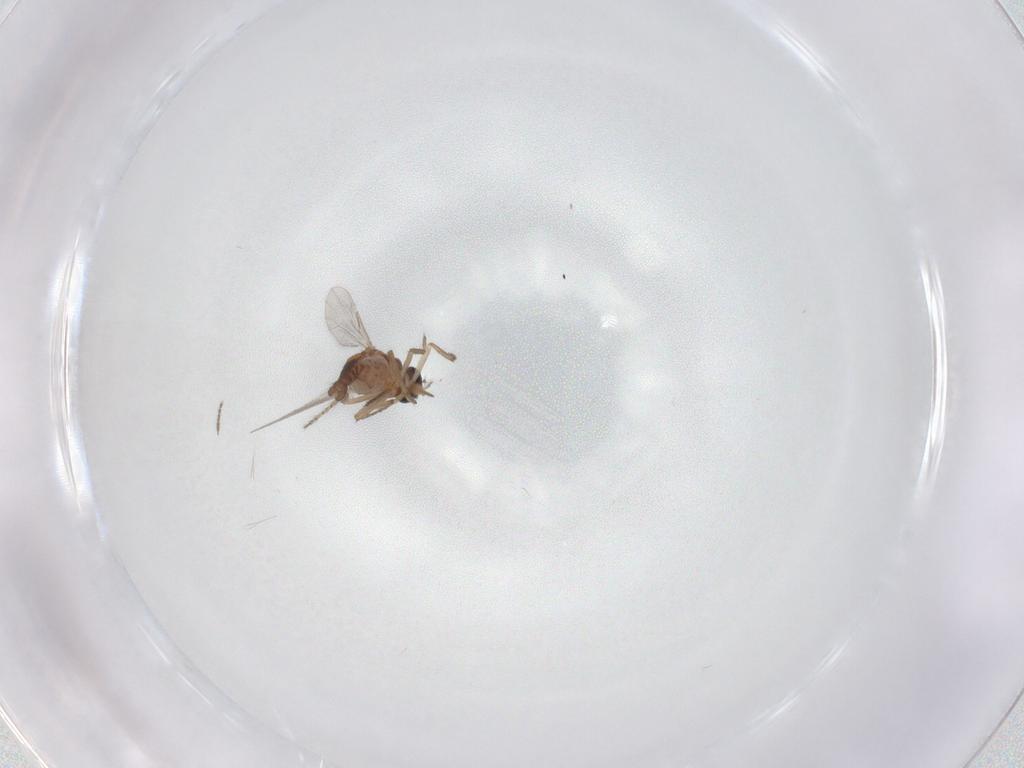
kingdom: Animalia
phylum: Arthropoda
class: Insecta
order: Diptera
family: Ceratopogonidae
